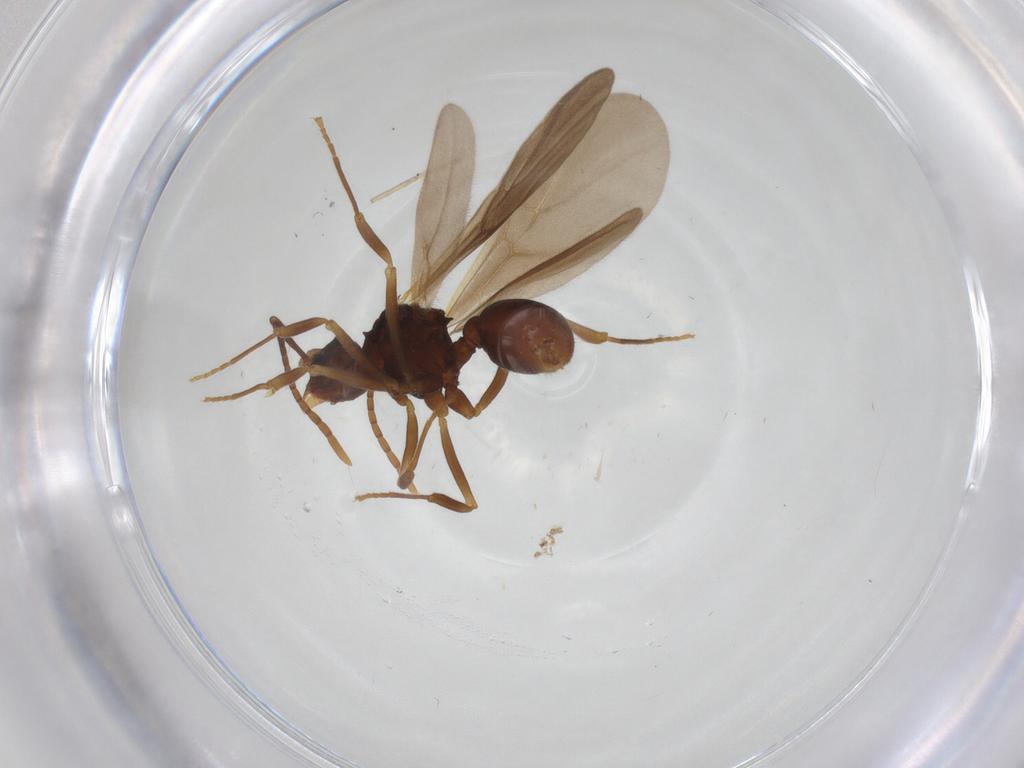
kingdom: Animalia
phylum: Arthropoda
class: Insecta
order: Hymenoptera
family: Formicidae
